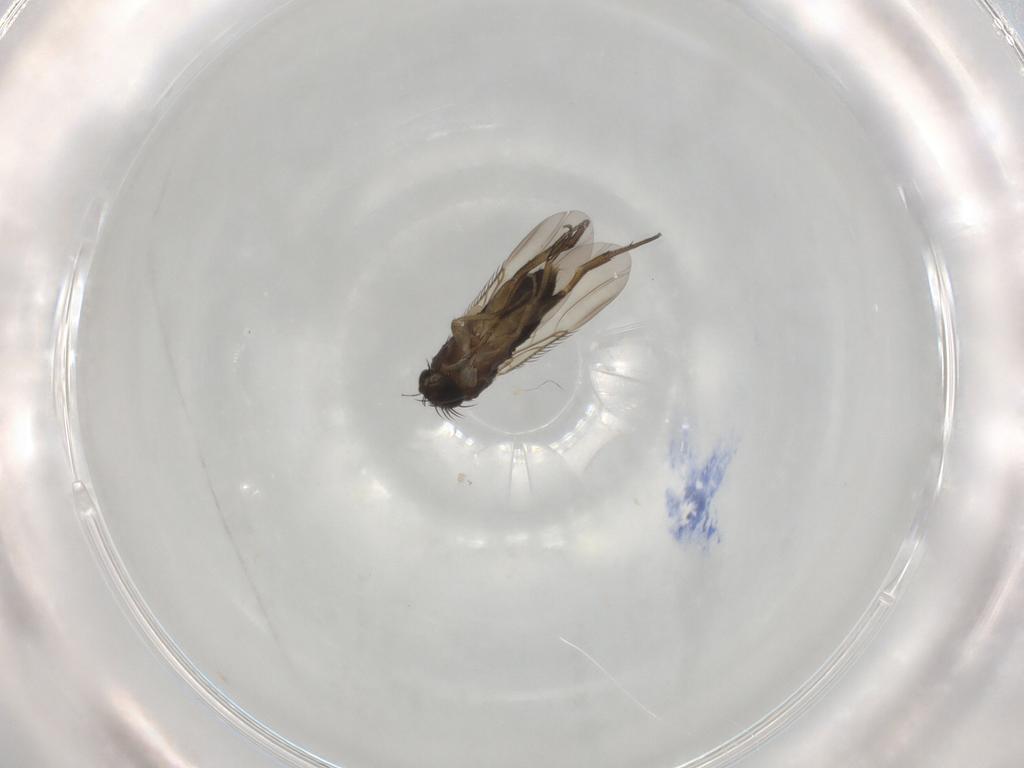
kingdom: Animalia
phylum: Arthropoda
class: Insecta
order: Diptera
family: Phoridae
